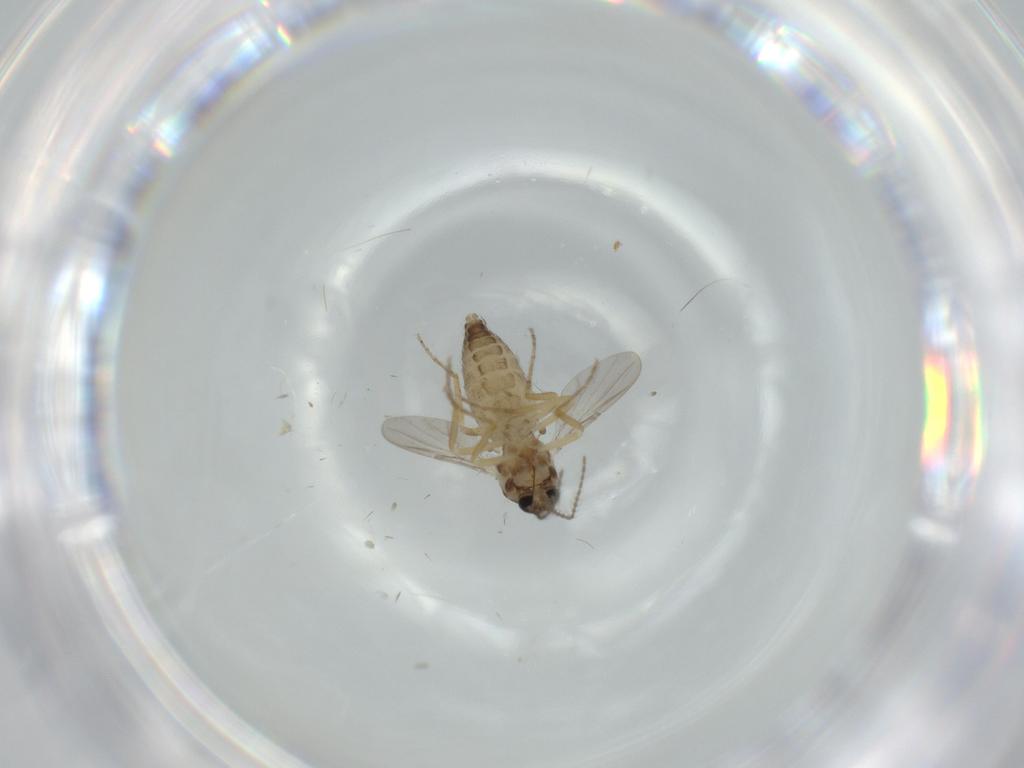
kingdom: Animalia
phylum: Arthropoda
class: Insecta
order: Diptera
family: Ceratopogonidae
